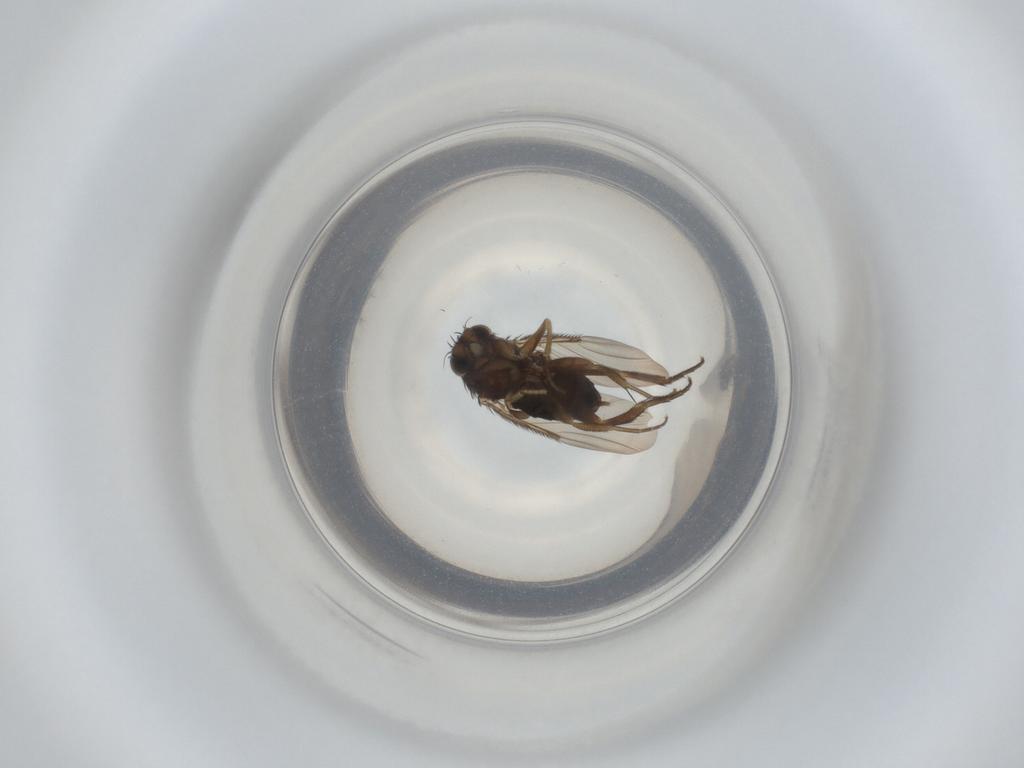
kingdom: Animalia
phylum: Arthropoda
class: Insecta
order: Diptera
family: Phoridae
